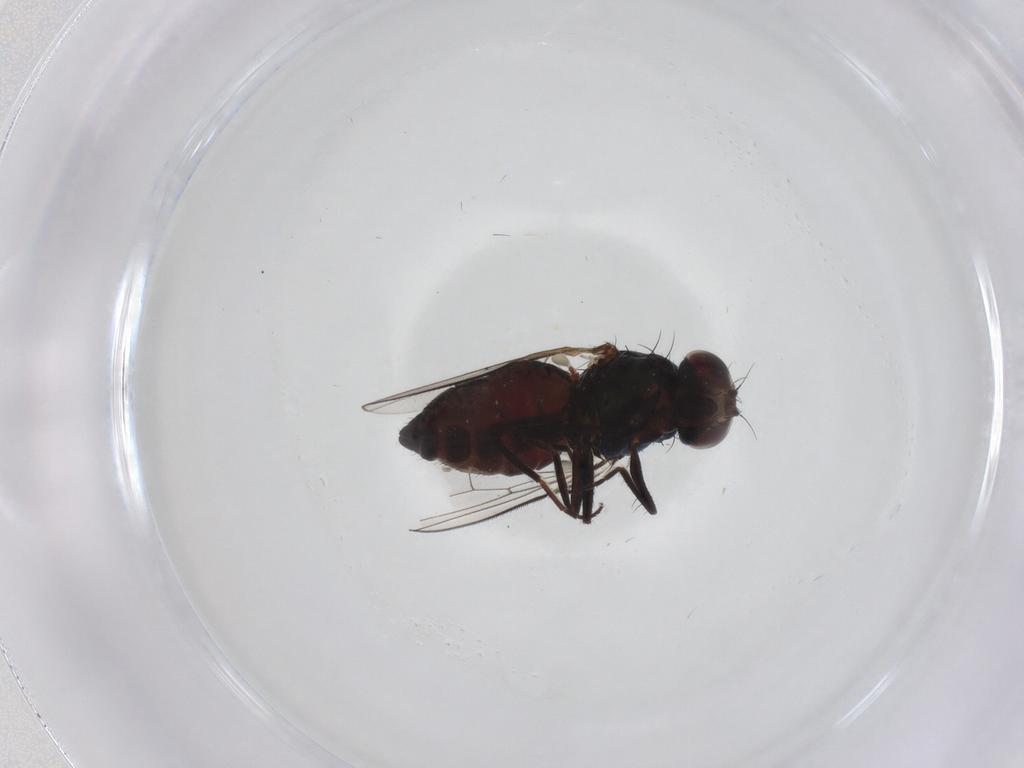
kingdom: Animalia
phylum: Arthropoda
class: Insecta
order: Diptera
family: Carnidae
